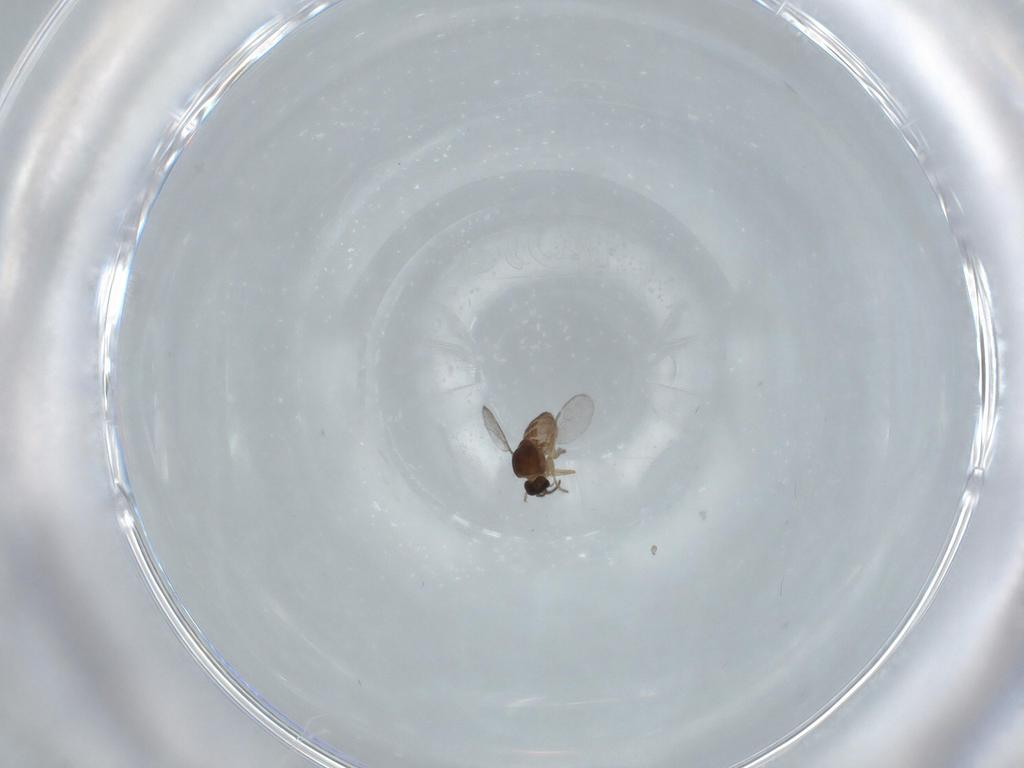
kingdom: Animalia
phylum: Arthropoda
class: Insecta
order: Diptera
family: Ceratopogonidae
